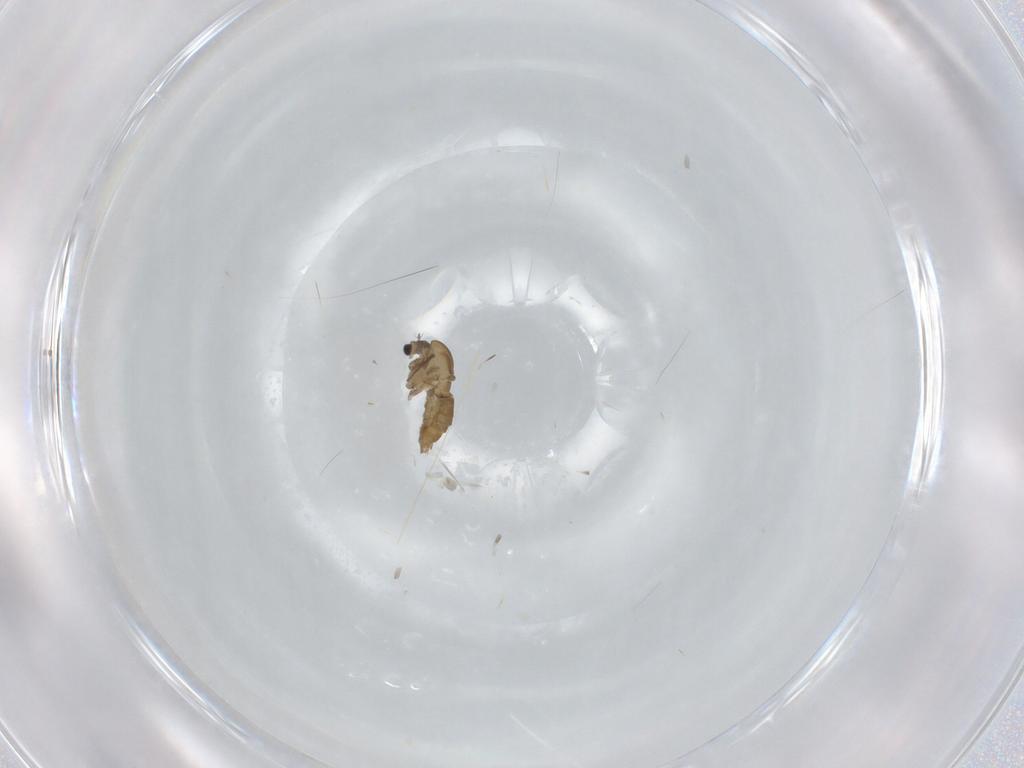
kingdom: Animalia
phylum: Arthropoda
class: Insecta
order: Diptera
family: Chironomidae
